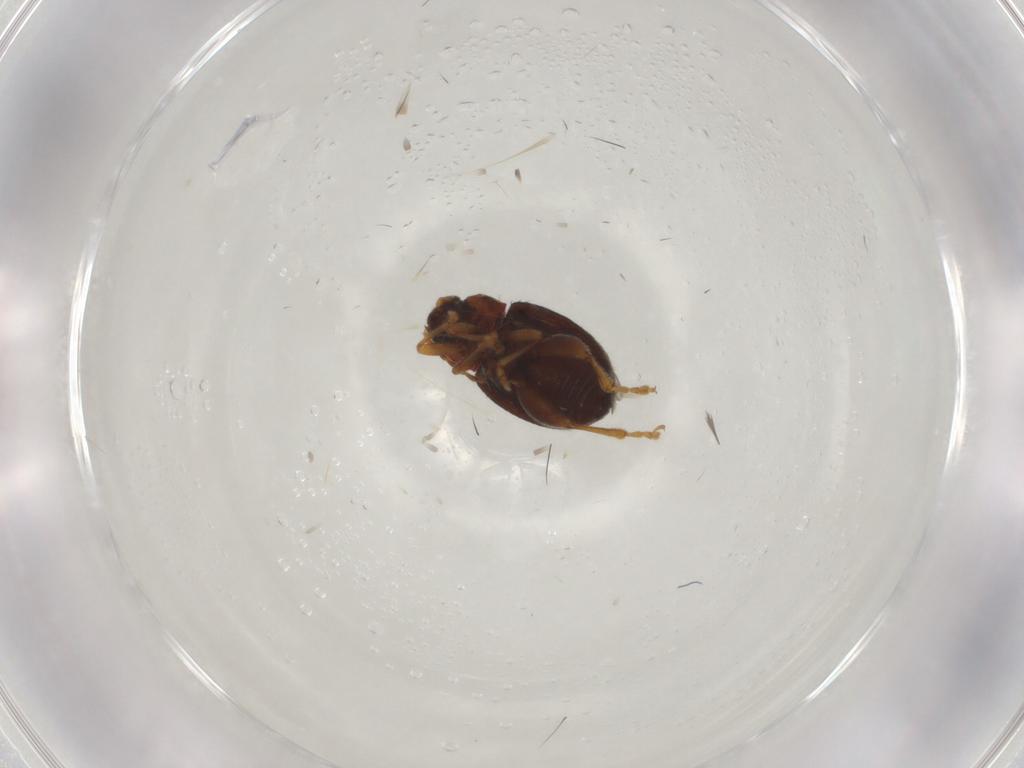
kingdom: Animalia
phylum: Arthropoda
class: Insecta
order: Coleoptera
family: Chrysomelidae
